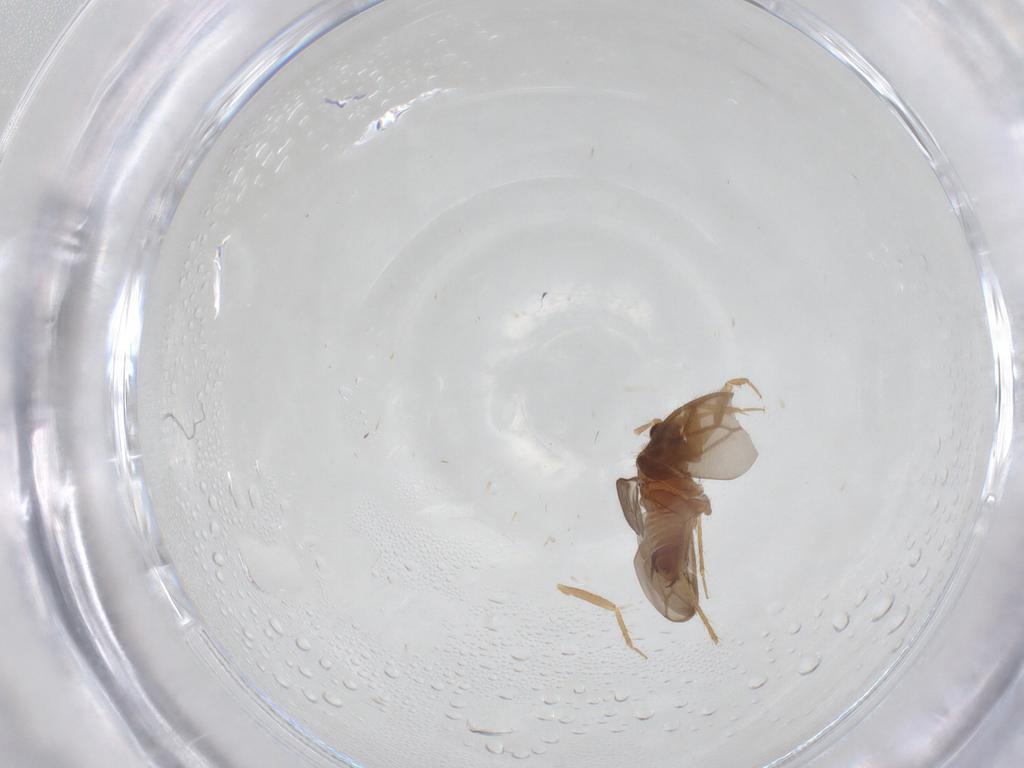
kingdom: Animalia
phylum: Arthropoda
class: Insecta
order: Hemiptera
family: Ceratocombidae
